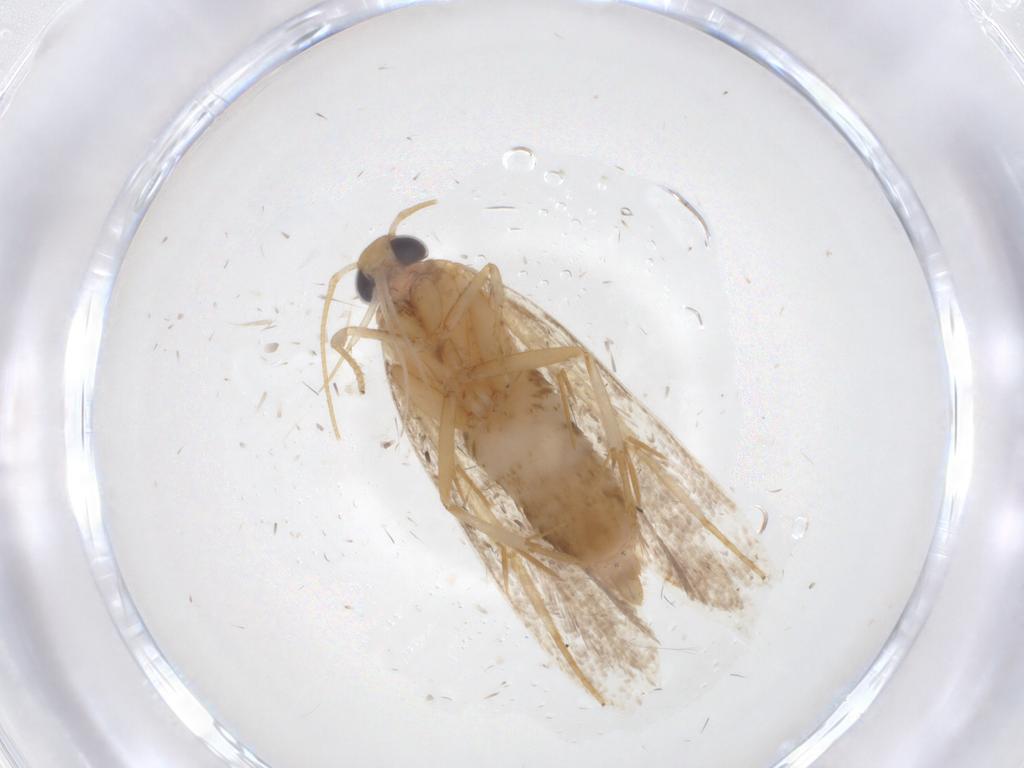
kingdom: Animalia
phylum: Arthropoda
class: Insecta
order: Lepidoptera
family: Oecophoridae
